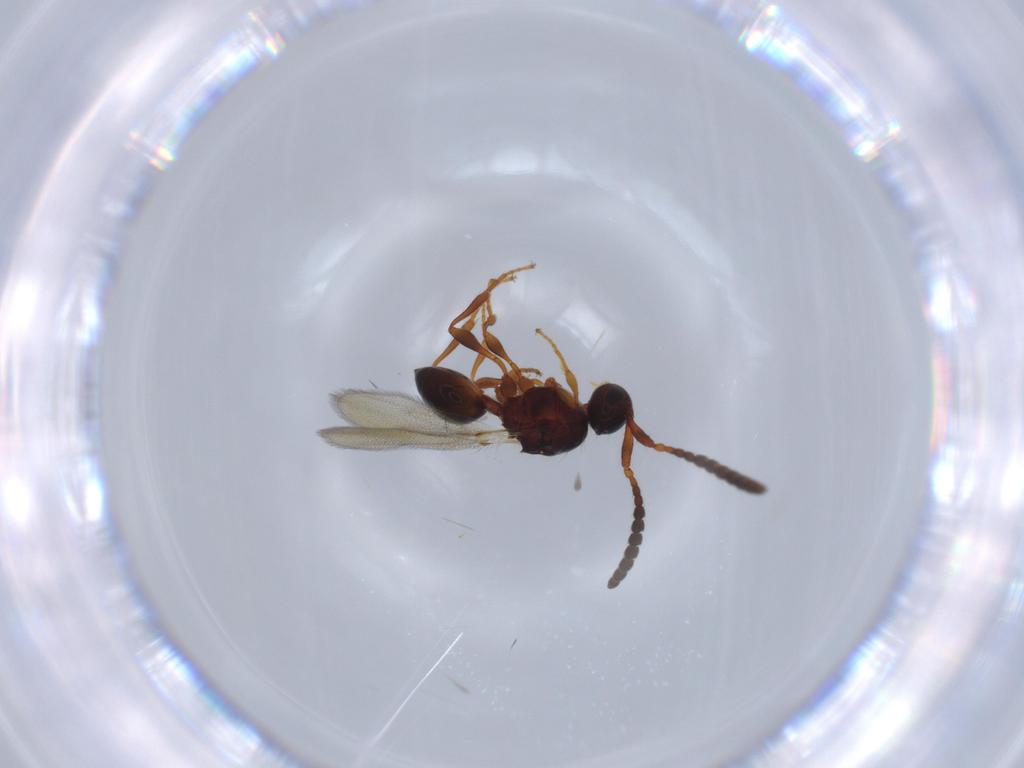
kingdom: Animalia
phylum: Arthropoda
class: Insecta
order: Hymenoptera
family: Diapriidae
